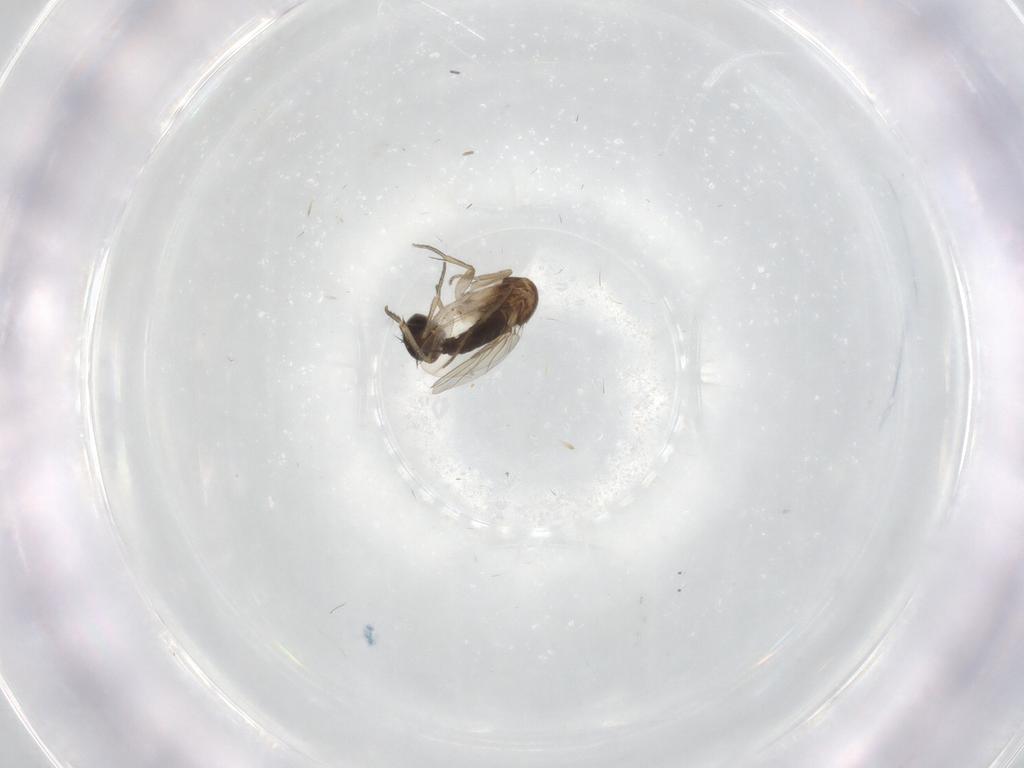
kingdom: Animalia
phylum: Arthropoda
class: Insecta
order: Diptera
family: Phoridae
